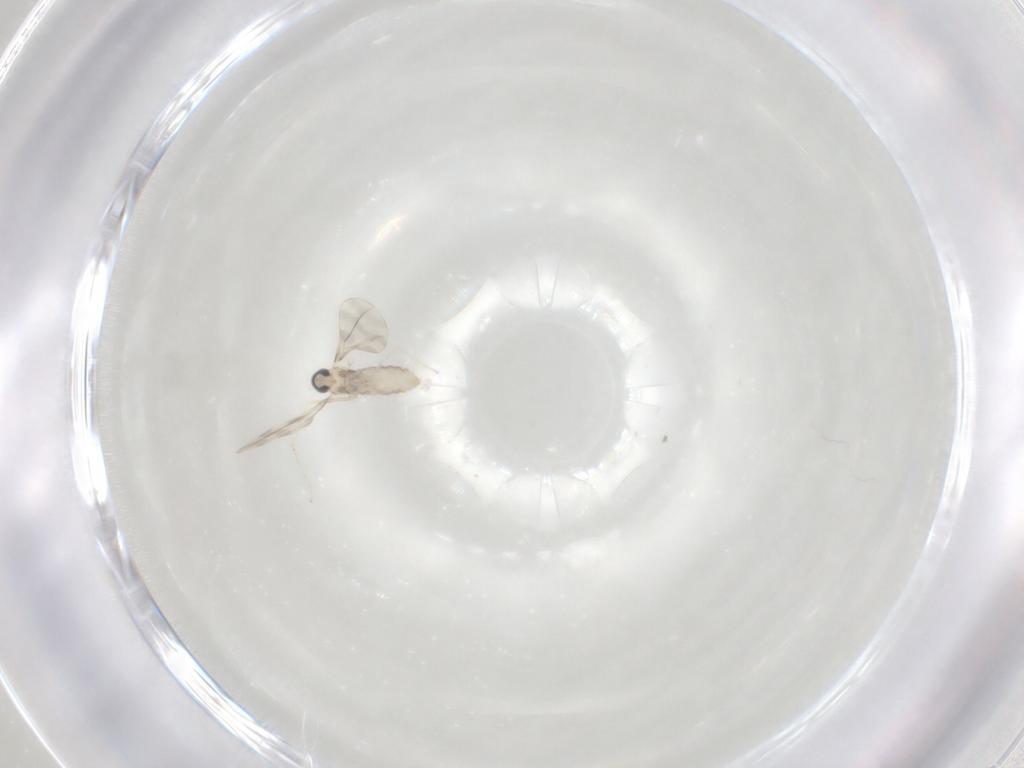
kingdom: Animalia
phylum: Arthropoda
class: Insecta
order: Diptera
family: Cecidomyiidae
